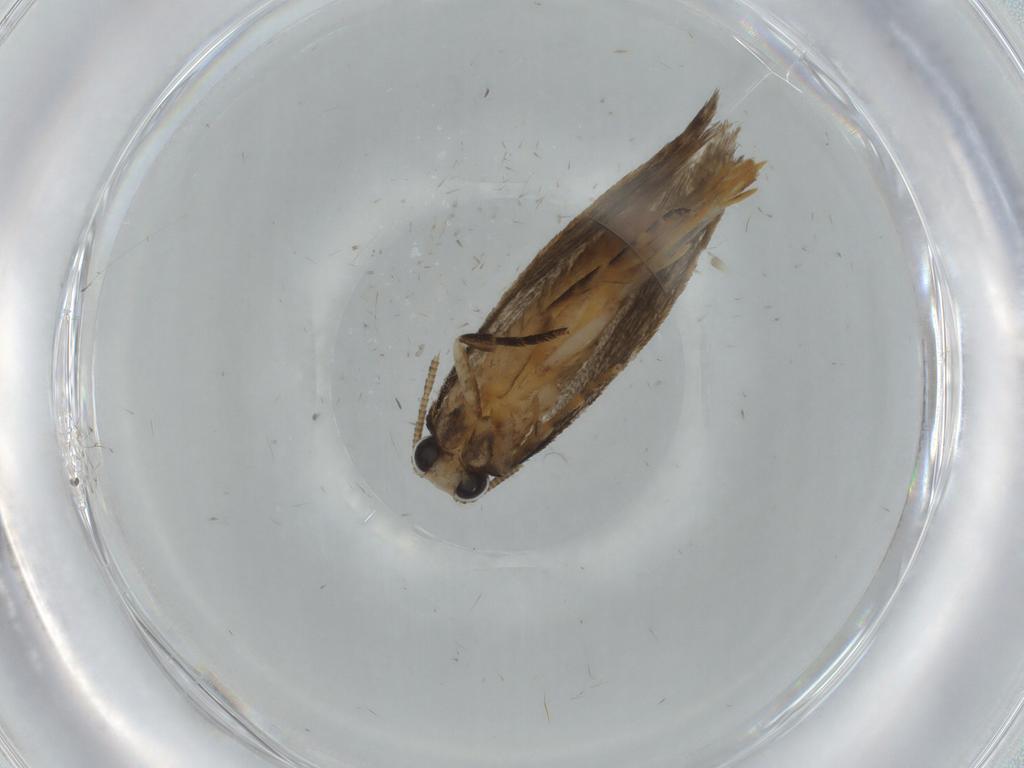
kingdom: Animalia
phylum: Arthropoda
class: Insecta
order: Lepidoptera
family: Tineidae
